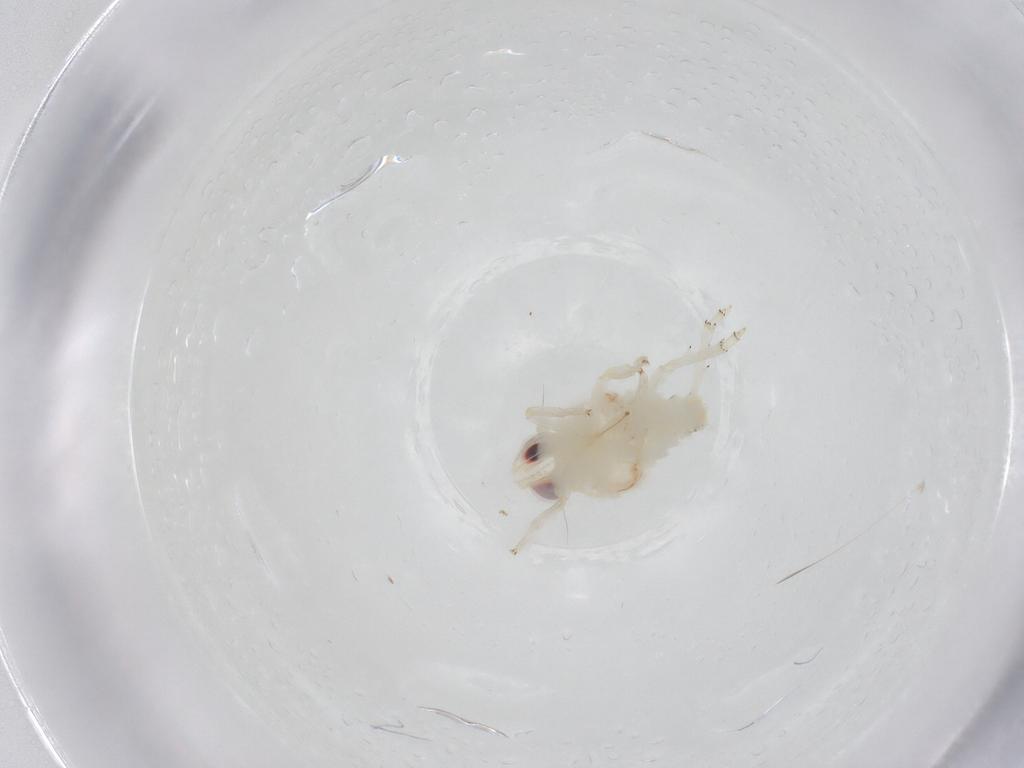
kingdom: Animalia
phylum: Arthropoda
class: Insecta
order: Hemiptera
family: Nogodinidae
